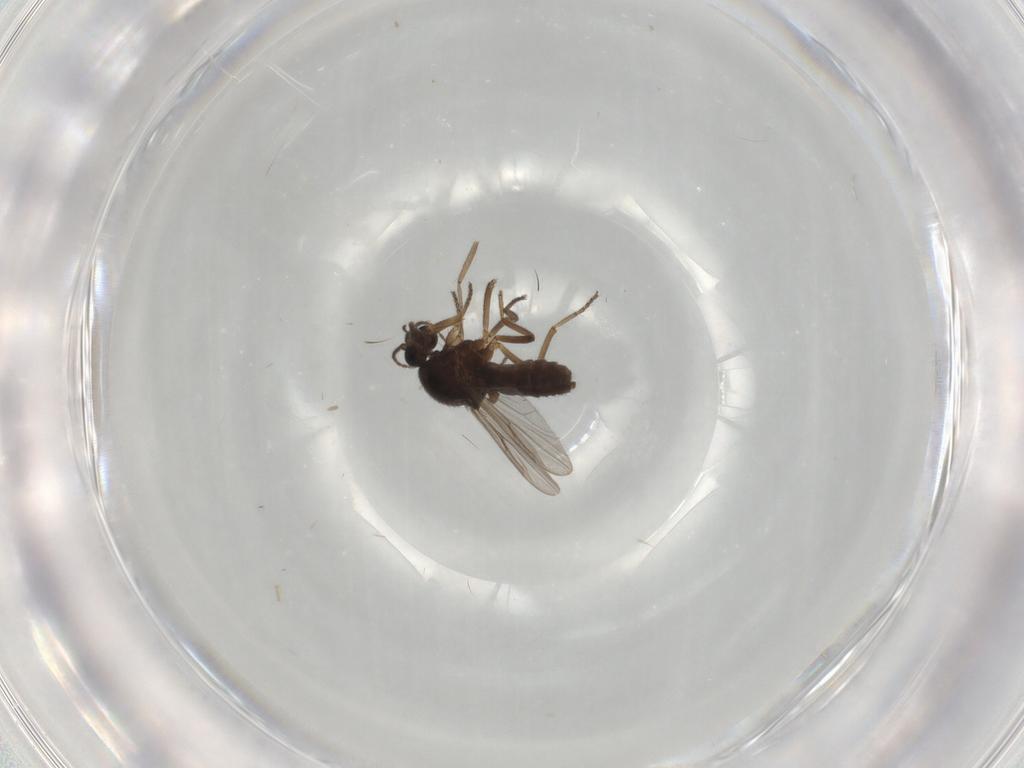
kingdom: Animalia
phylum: Arthropoda
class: Insecta
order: Diptera
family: Ceratopogonidae
